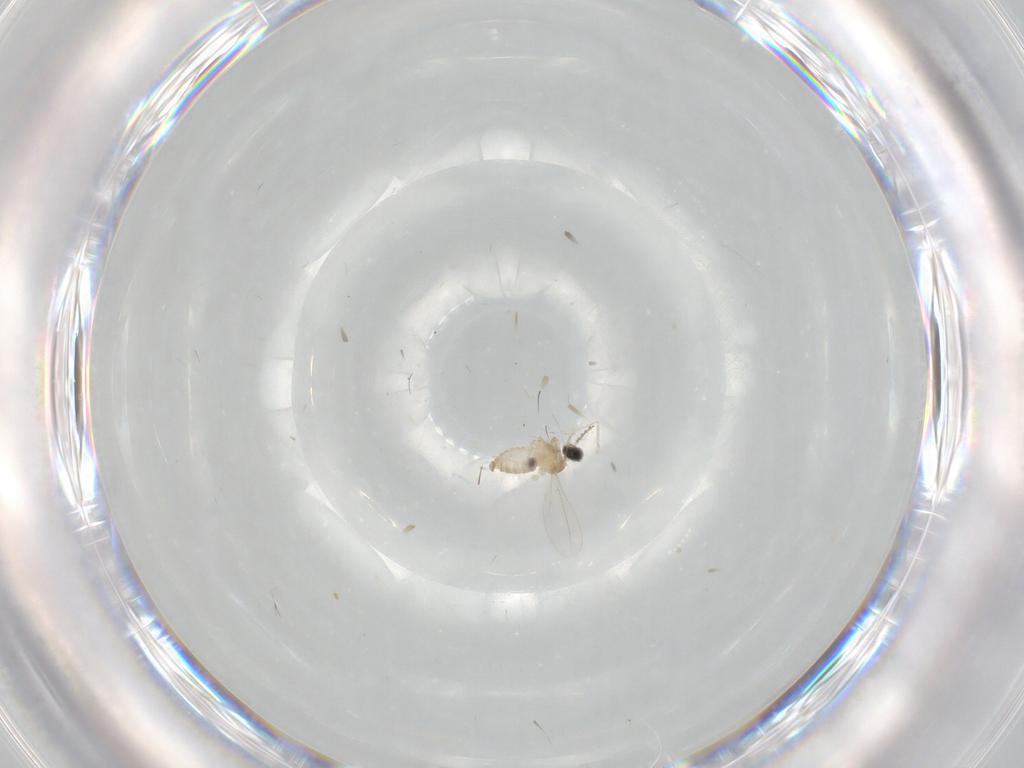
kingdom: Animalia
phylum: Arthropoda
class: Insecta
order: Diptera
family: Cecidomyiidae
